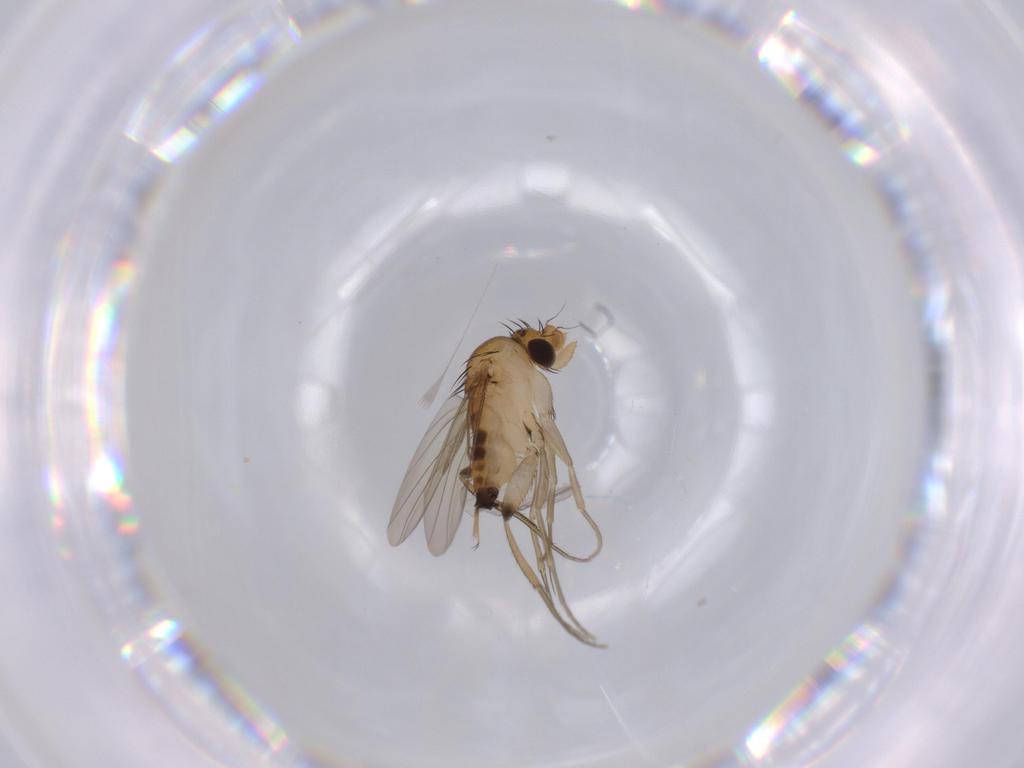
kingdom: Animalia
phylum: Arthropoda
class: Insecta
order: Diptera
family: Phoridae
